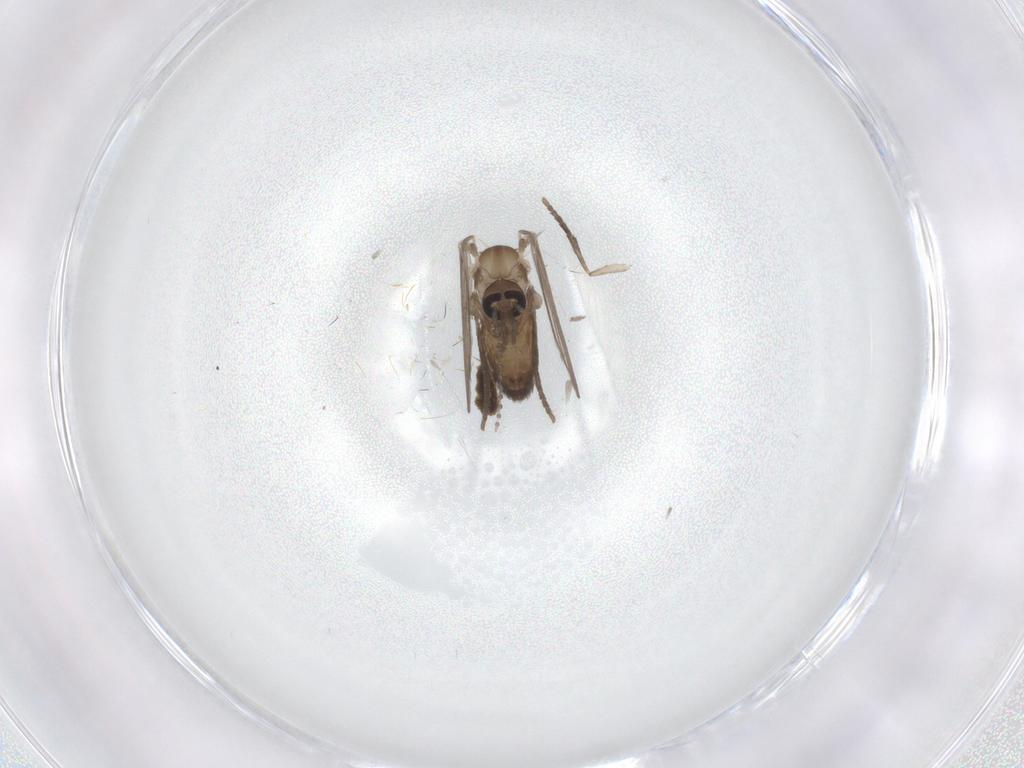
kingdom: Animalia
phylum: Arthropoda
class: Insecta
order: Diptera
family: Psychodidae
